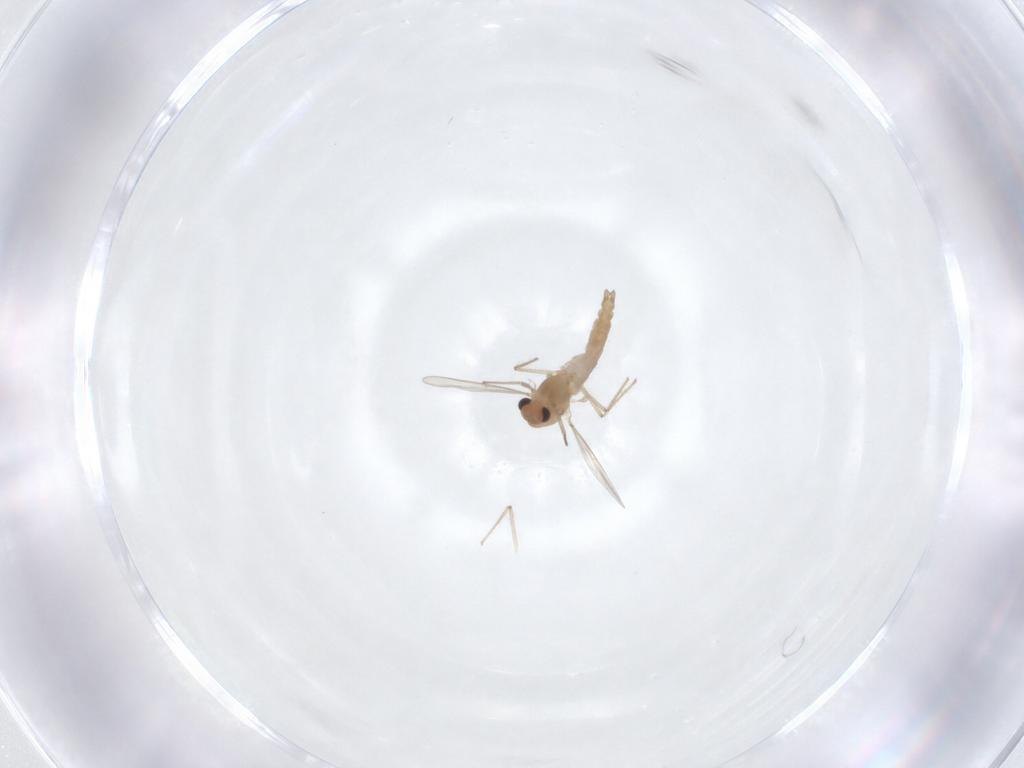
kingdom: Animalia
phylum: Arthropoda
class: Insecta
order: Diptera
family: Chironomidae
